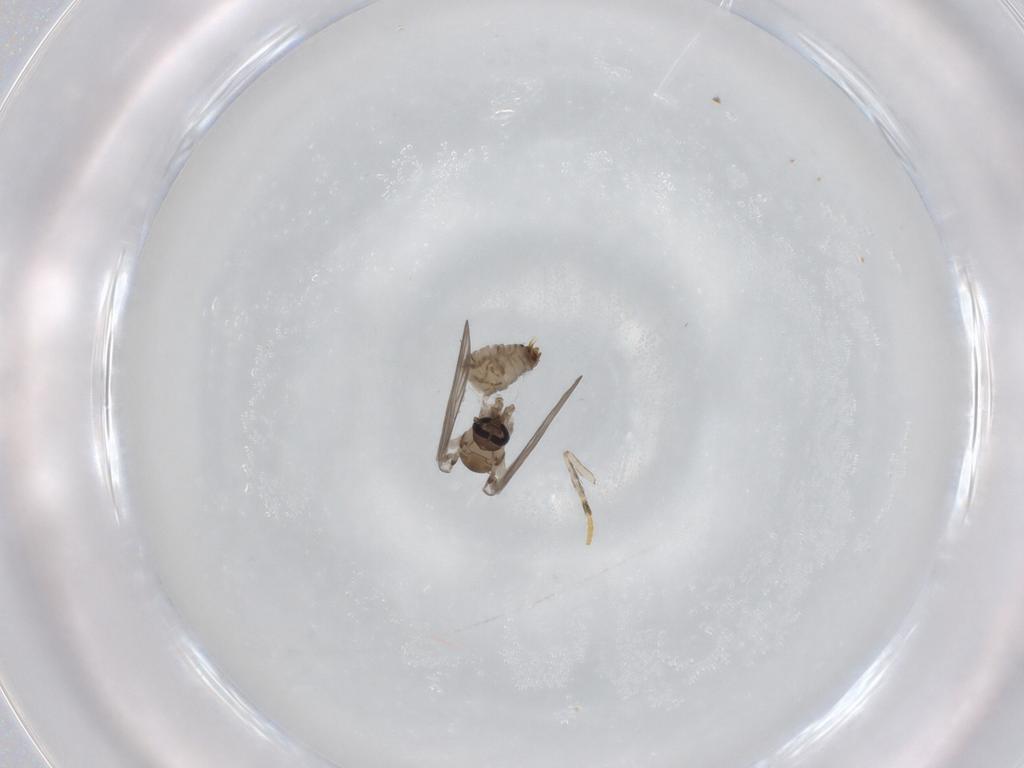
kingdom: Animalia
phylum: Arthropoda
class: Insecta
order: Diptera
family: Psychodidae
